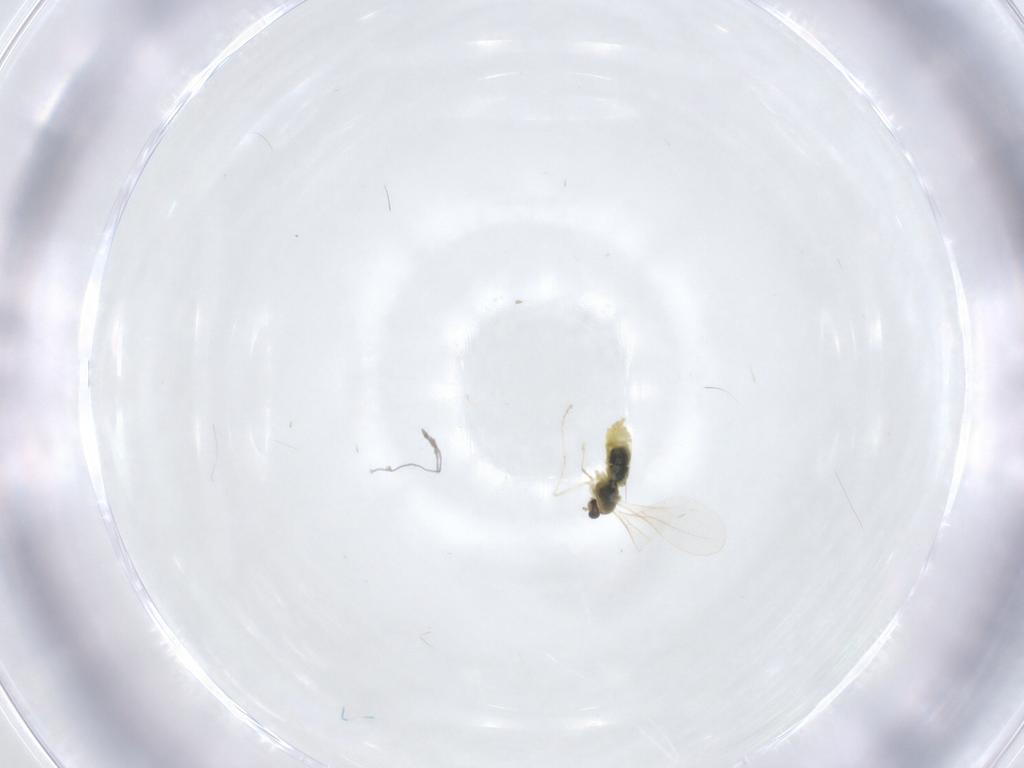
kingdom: Animalia
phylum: Arthropoda
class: Insecta
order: Diptera
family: Cecidomyiidae
